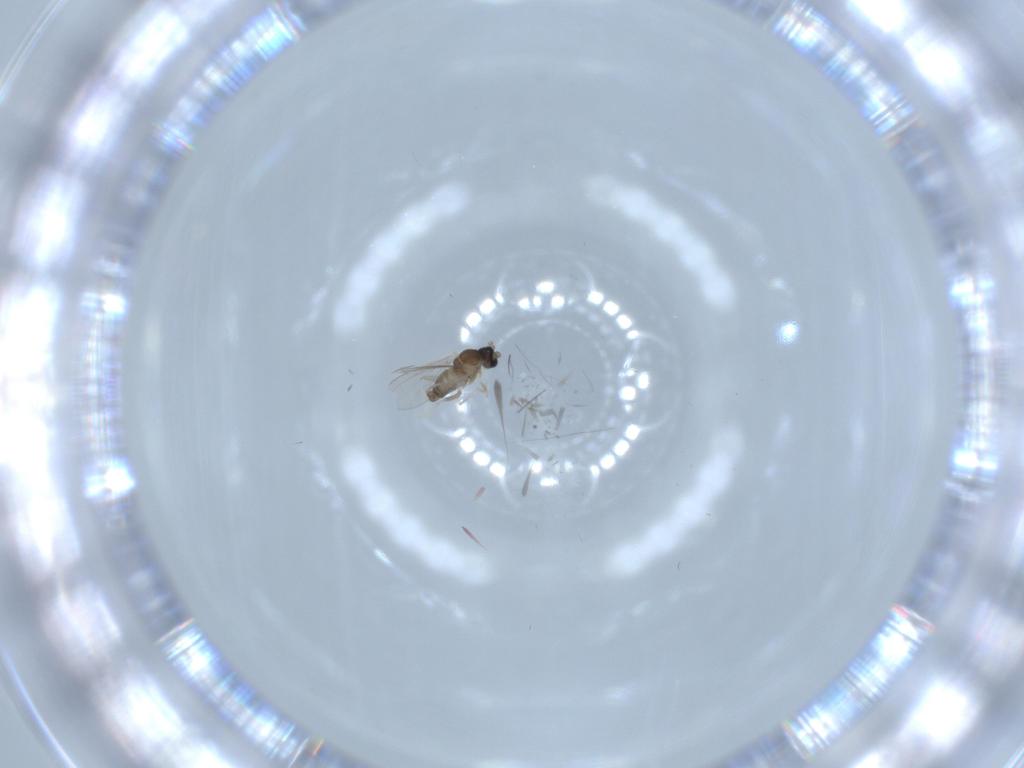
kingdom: Animalia
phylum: Arthropoda
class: Insecta
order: Diptera
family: Cecidomyiidae
